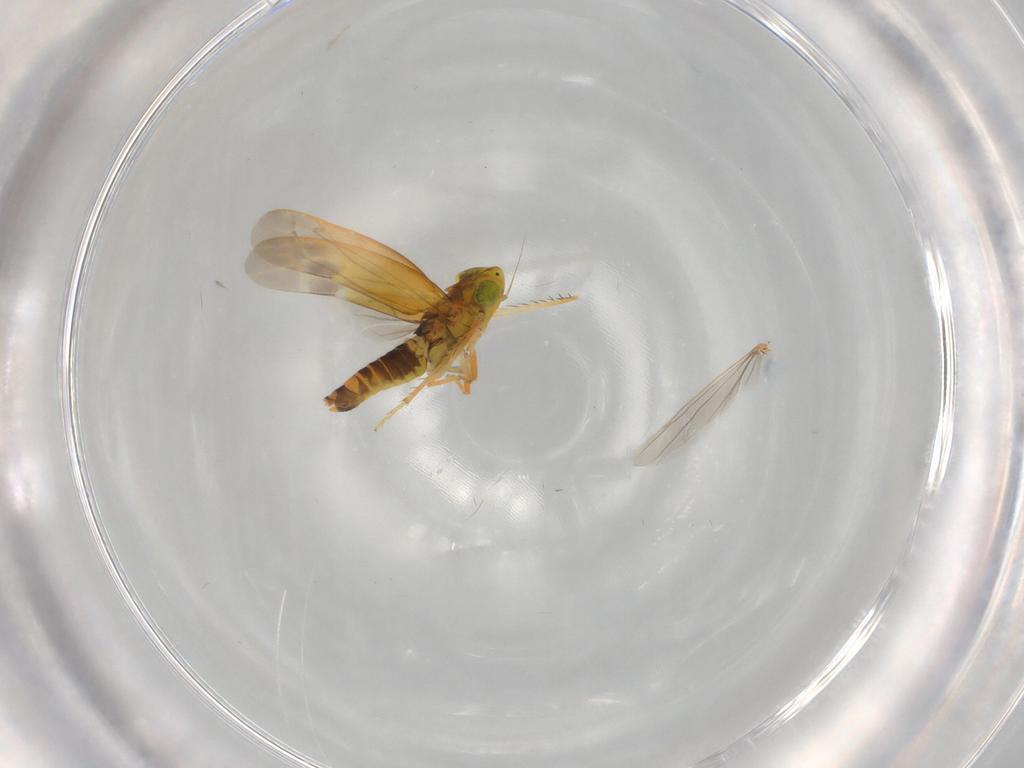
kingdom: Animalia
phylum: Arthropoda
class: Insecta
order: Hemiptera
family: Cicadellidae
